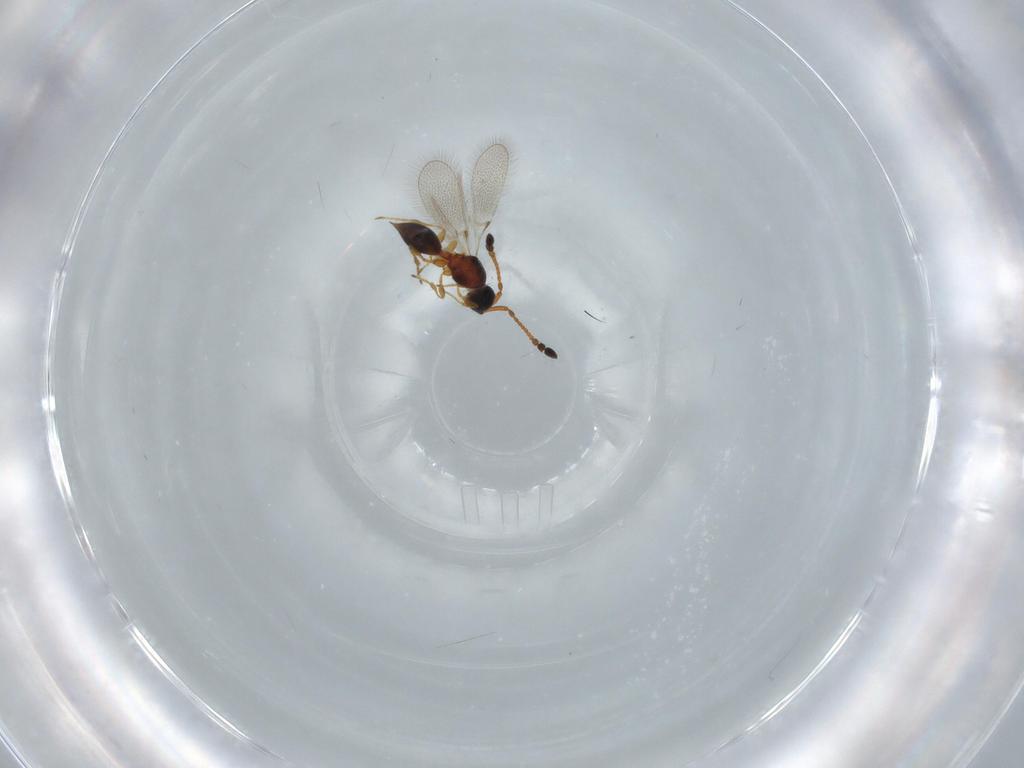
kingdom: Animalia
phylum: Arthropoda
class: Insecta
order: Hymenoptera
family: Diapriidae
